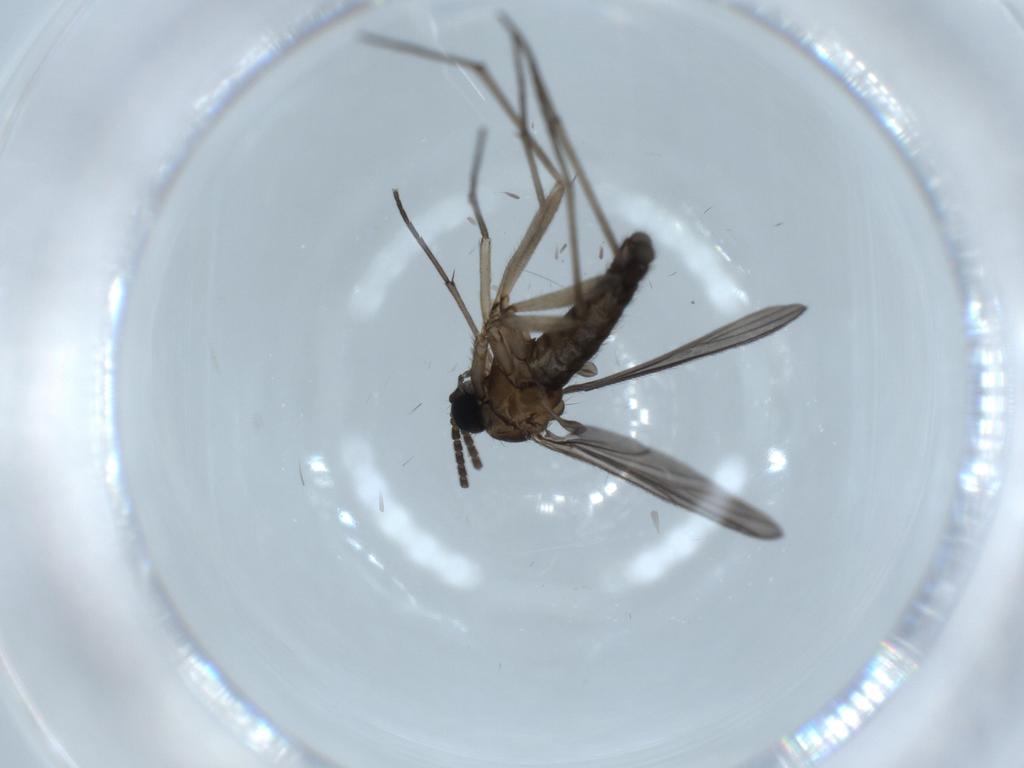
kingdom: Animalia
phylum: Arthropoda
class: Insecta
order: Diptera
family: Sciaridae
